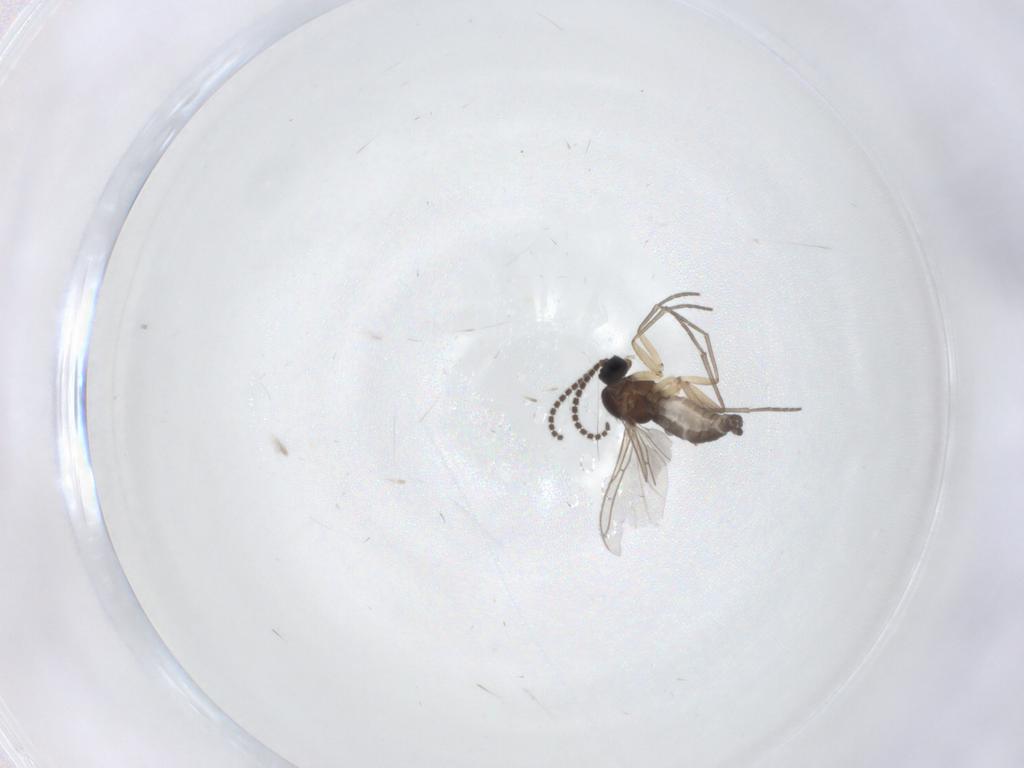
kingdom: Animalia
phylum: Arthropoda
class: Insecta
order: Diptera
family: Sciaridae
